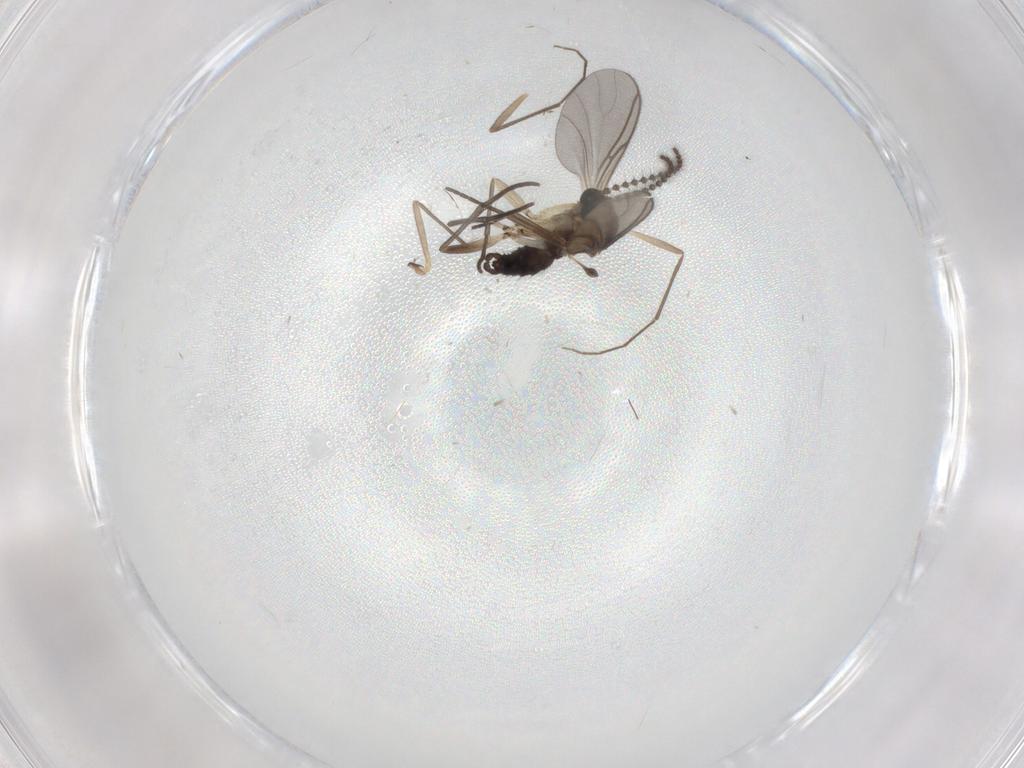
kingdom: Animalia
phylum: Arthropoda
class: Insecta
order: Diptera
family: Sciaridae
